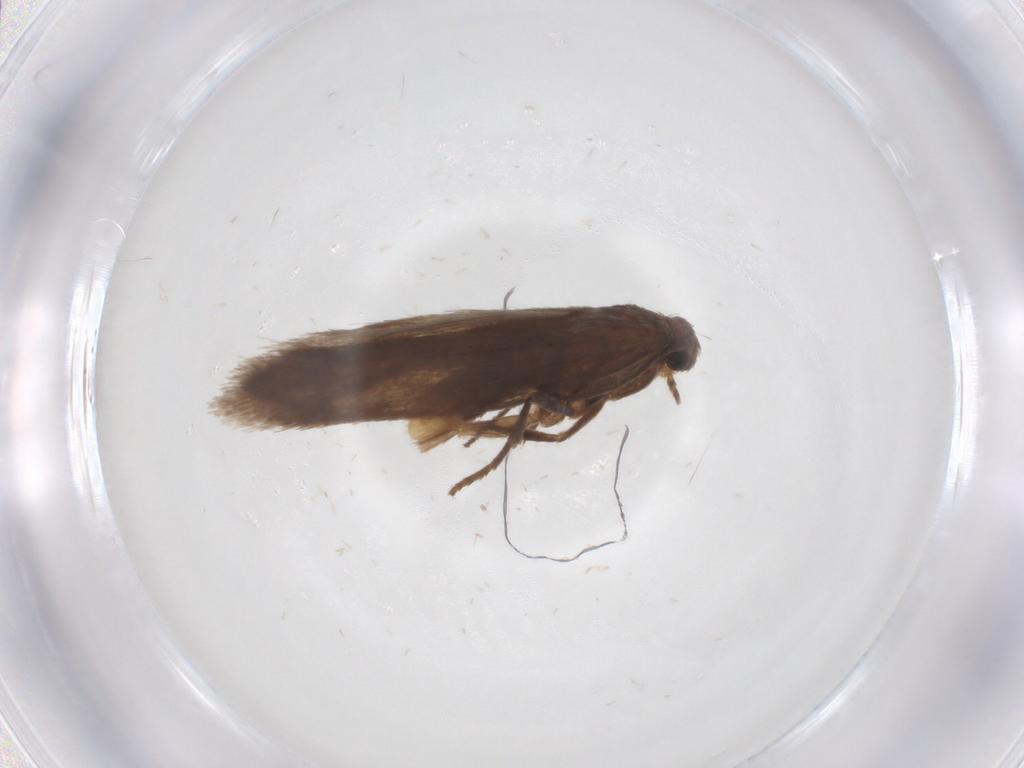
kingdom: Animalia
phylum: Arthropoda
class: Insecta
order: Lepidoptera
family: Limacodidae
